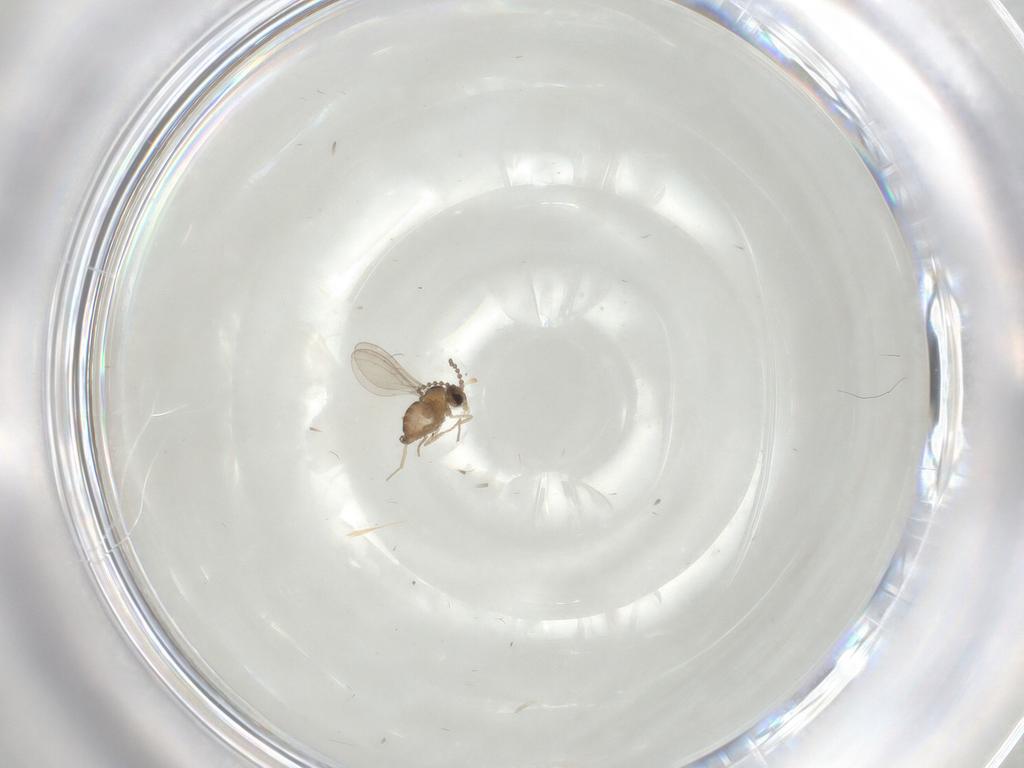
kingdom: Animalia
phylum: Arthropoda
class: Insecta
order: Diptera
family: Cecidomyiidae
